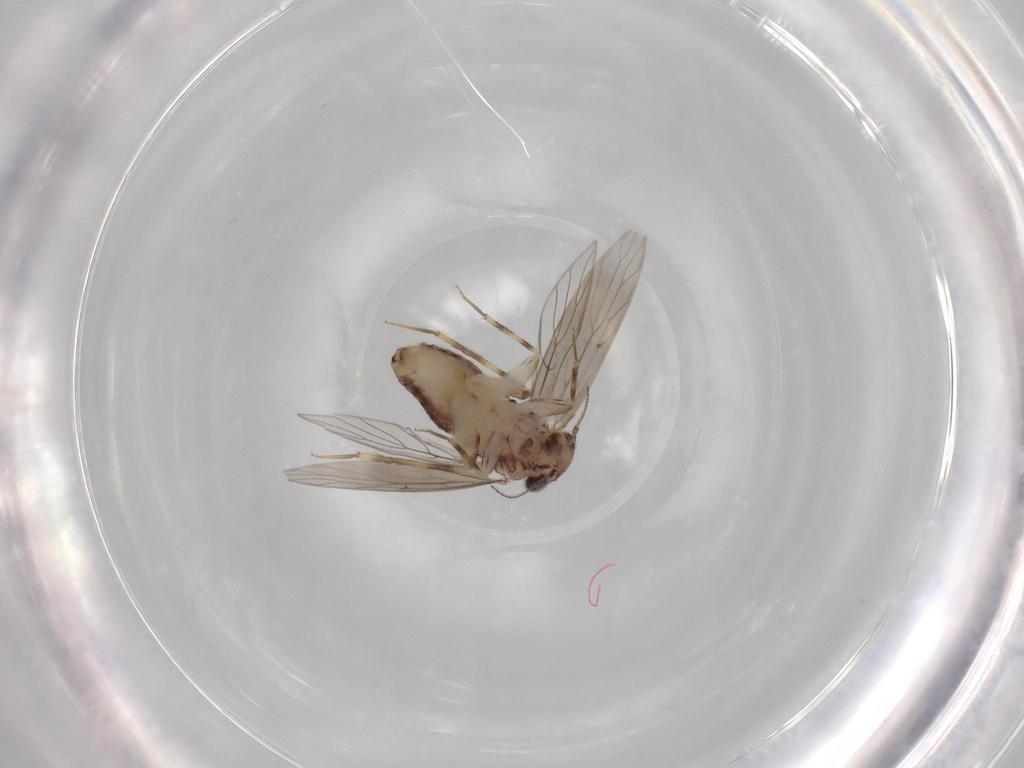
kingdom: Animalia
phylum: Arthropoda
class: Insecta
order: Psocodea
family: Lepidopsocidae
